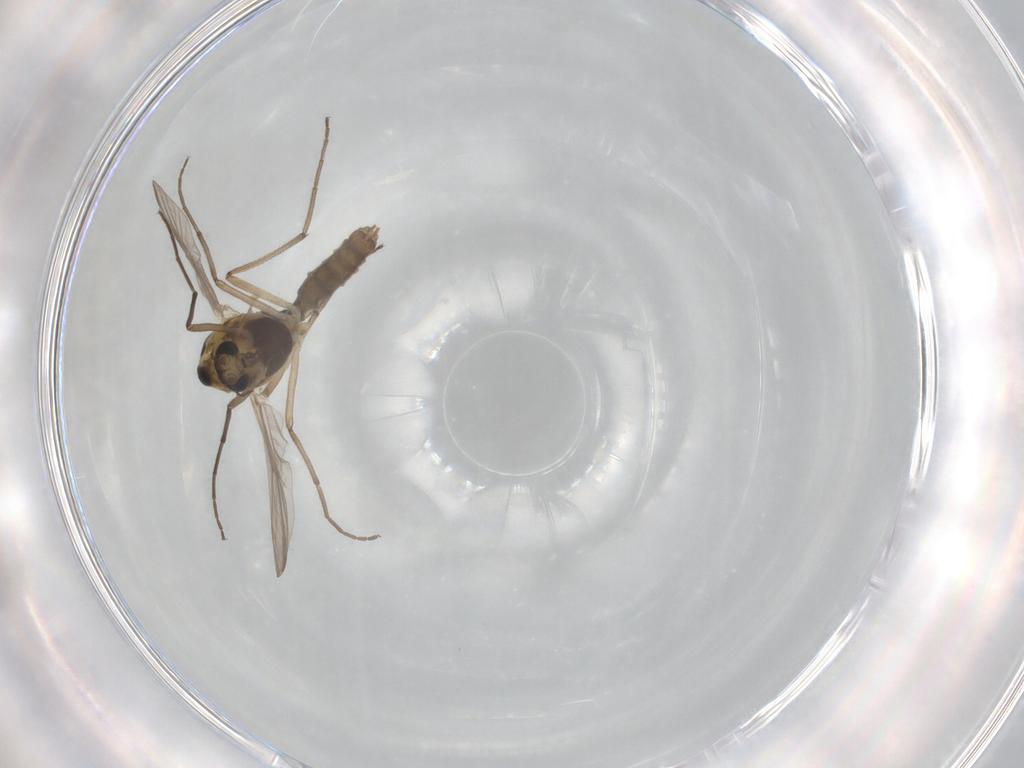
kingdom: Animalia
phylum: Arthropoda
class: Insecta
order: Diptera
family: Chironomidae
